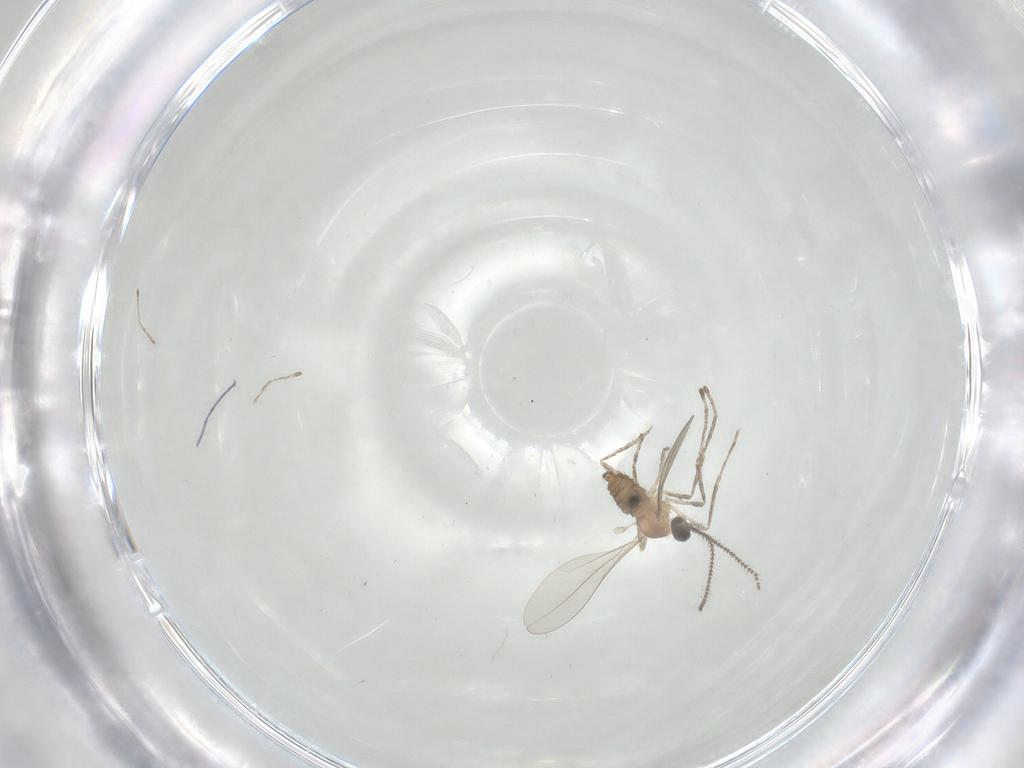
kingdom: Animalia
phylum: Arthropoda
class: Insecta
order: Diptera
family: Cecidomyiidae
